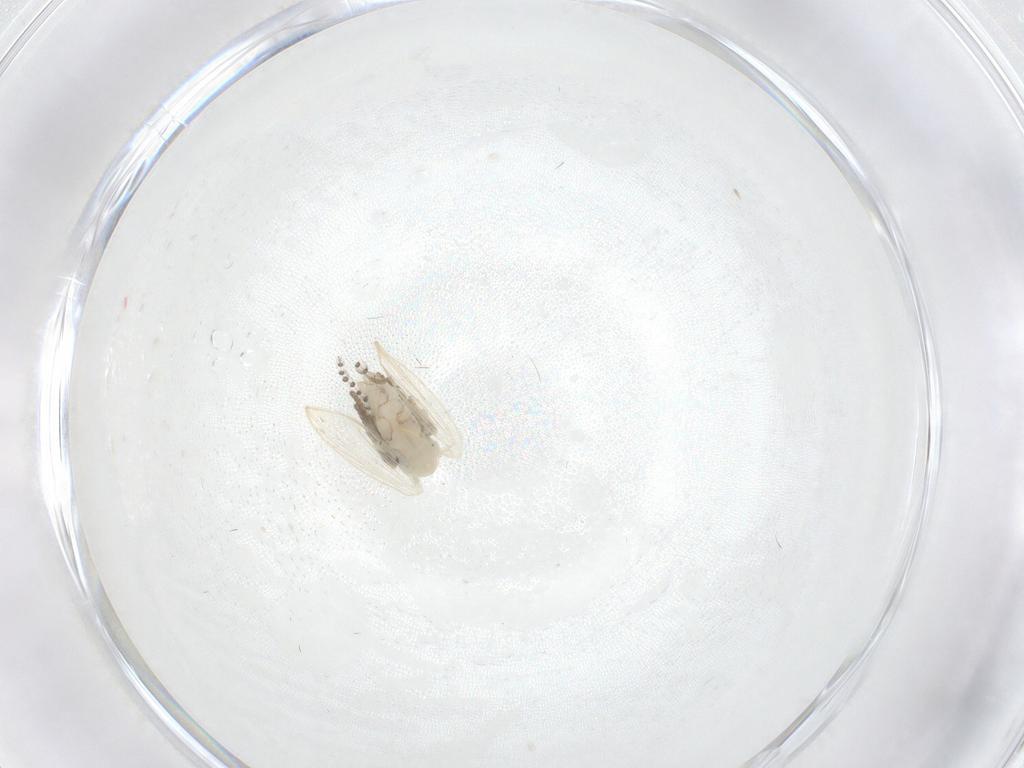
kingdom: Animalia
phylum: Arthropoda
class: Insecta
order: Diptera
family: Psychodidae
